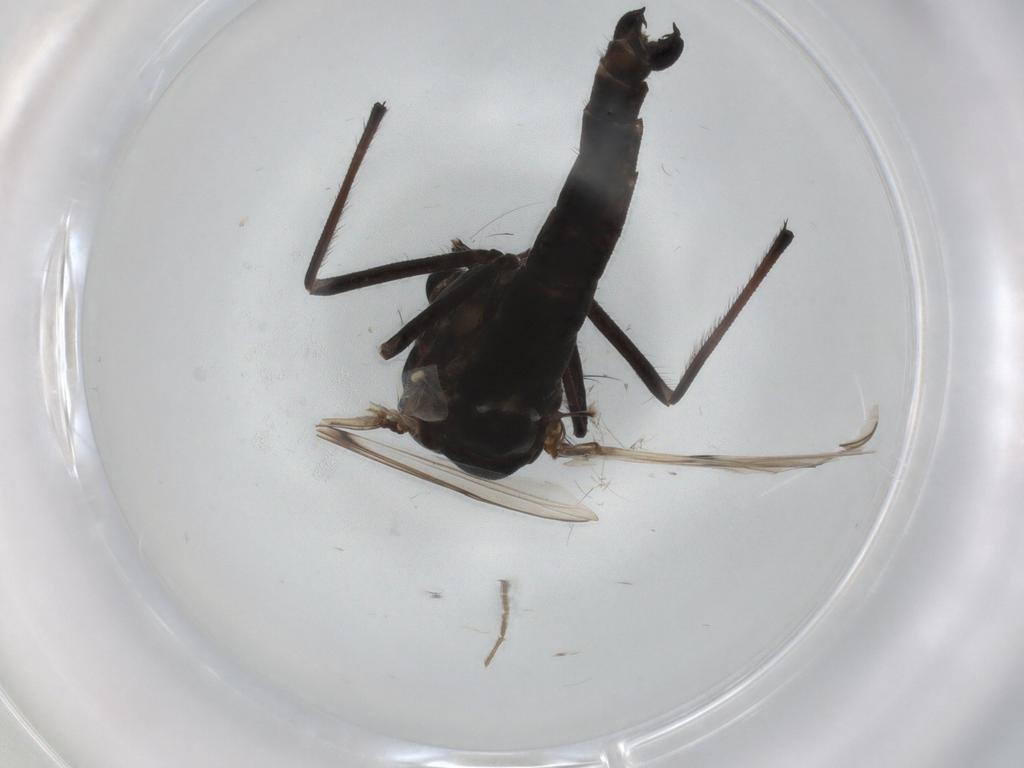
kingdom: Animalia
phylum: Arthropoda
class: Insecta
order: Diptera
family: Chironomidae
